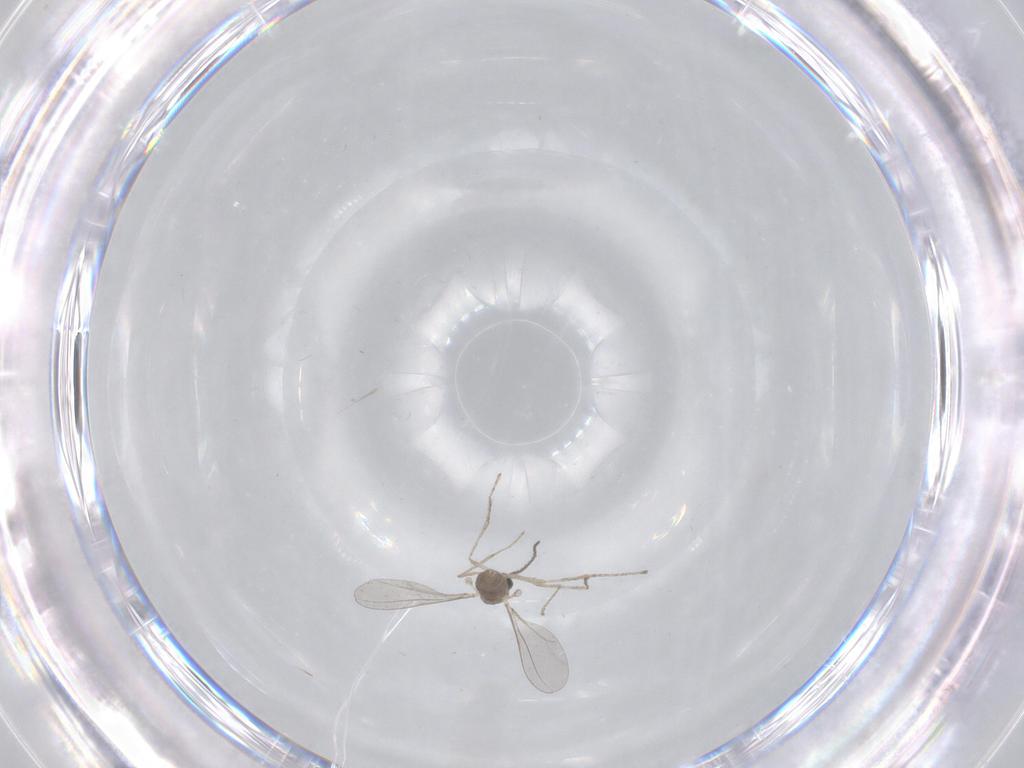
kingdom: Animalia
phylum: Arthropoda
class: Insecta
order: Diptera
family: Cecidomyiidae
